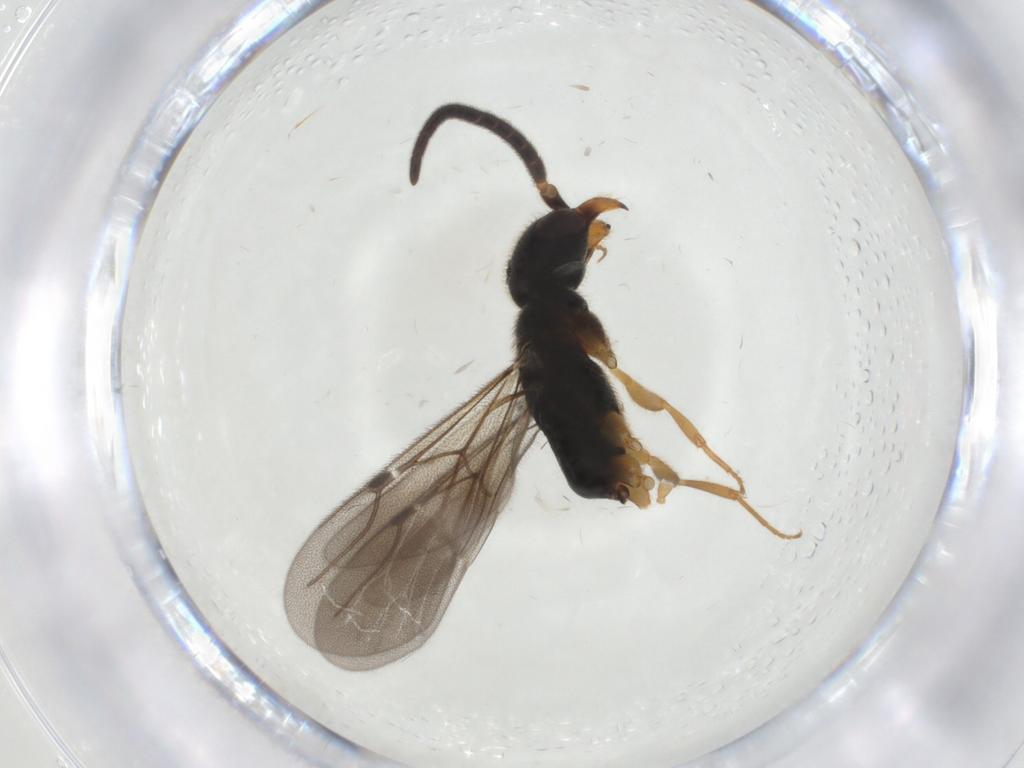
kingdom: Animalia
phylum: Arthropoda
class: Insecta
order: Hymenoptera
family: Bethylidae
